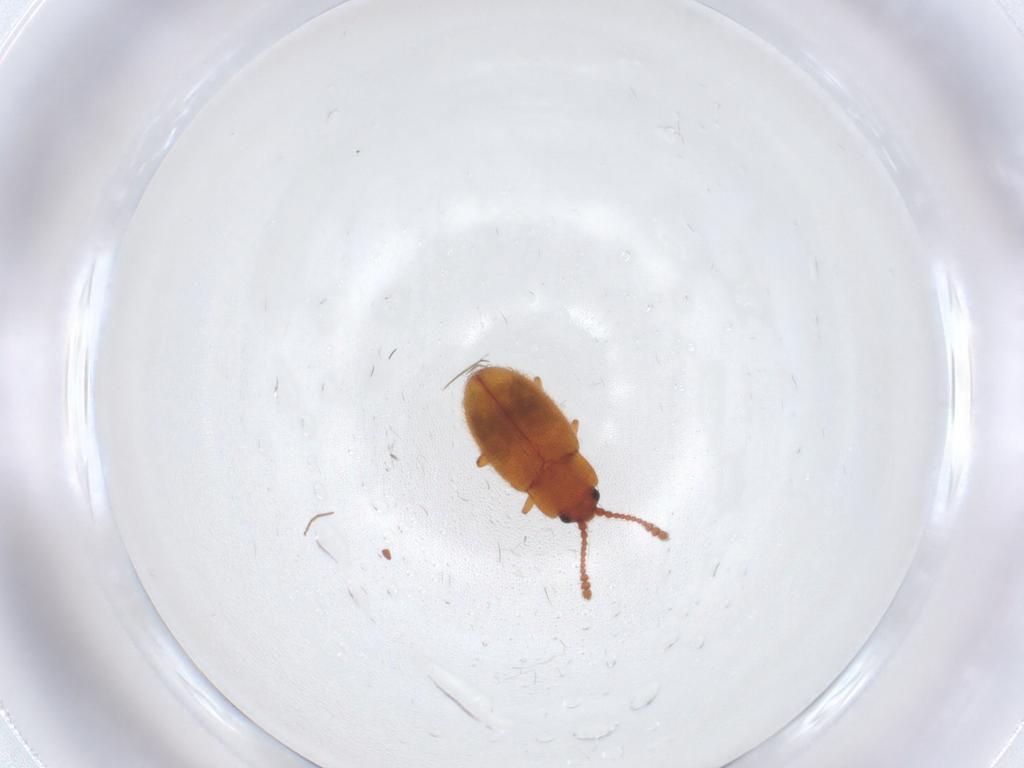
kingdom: Animalia
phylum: Arthropoda
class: Insecta
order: Coleoptera
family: Cryptophagidae
